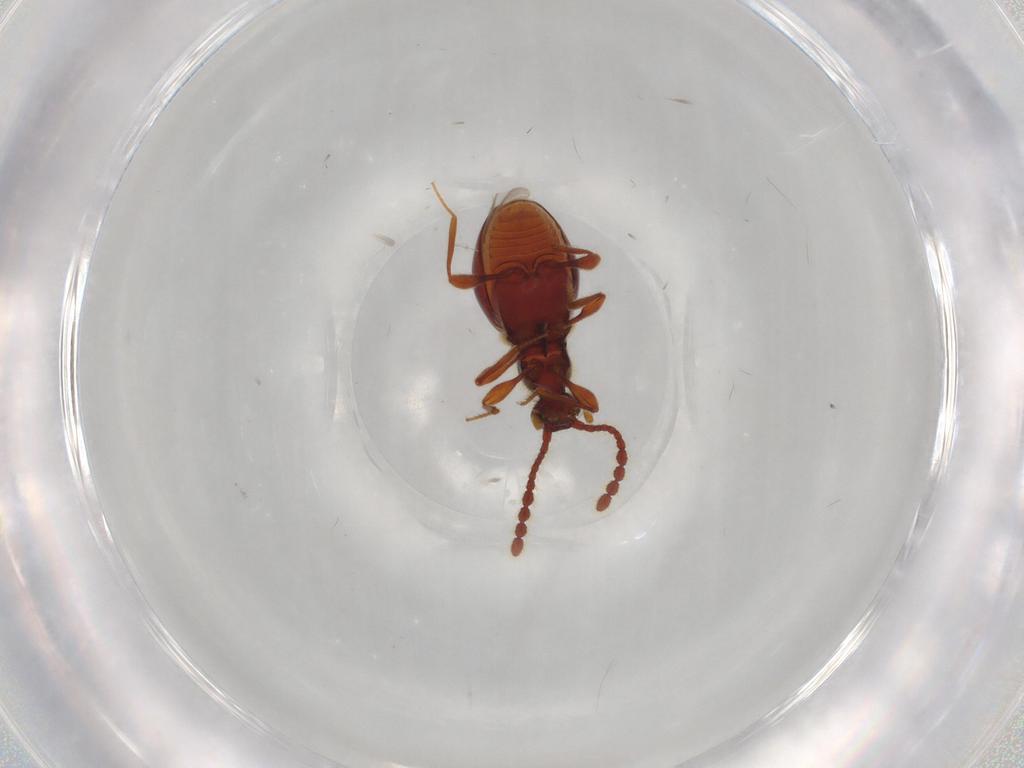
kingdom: Animalia
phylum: Arthropoda
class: Insecta
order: Coleoptera
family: Staphylinidae
